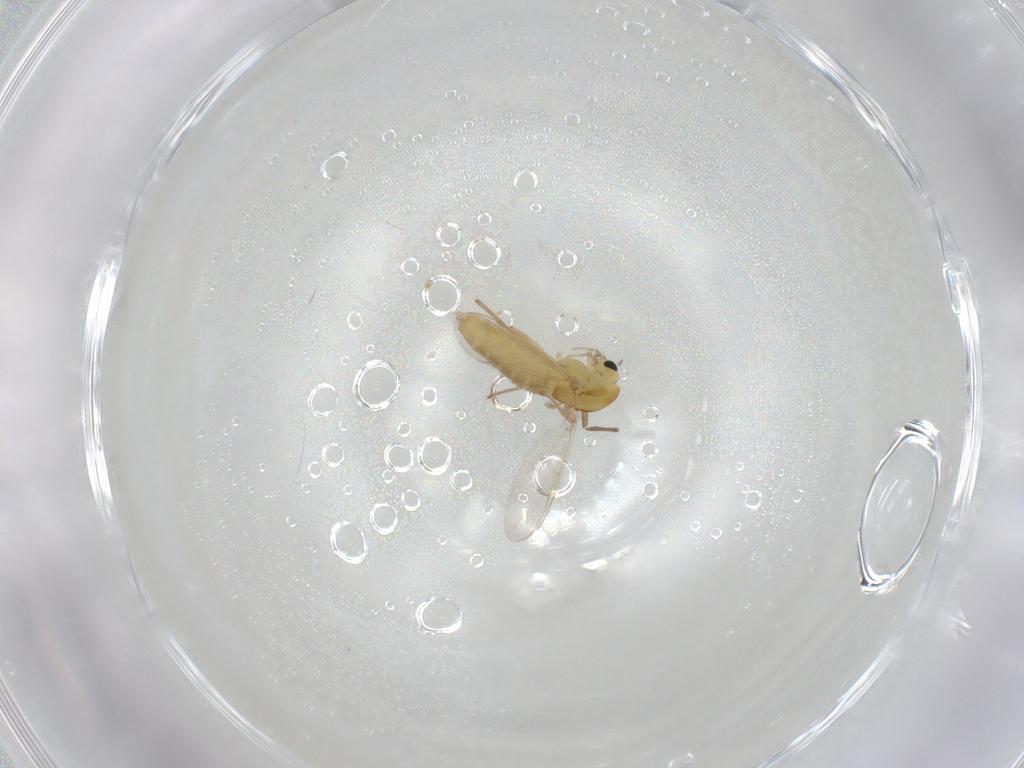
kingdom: Animalia
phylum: Arthropoda
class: Insecta
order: Diptera
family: Chironomidae
